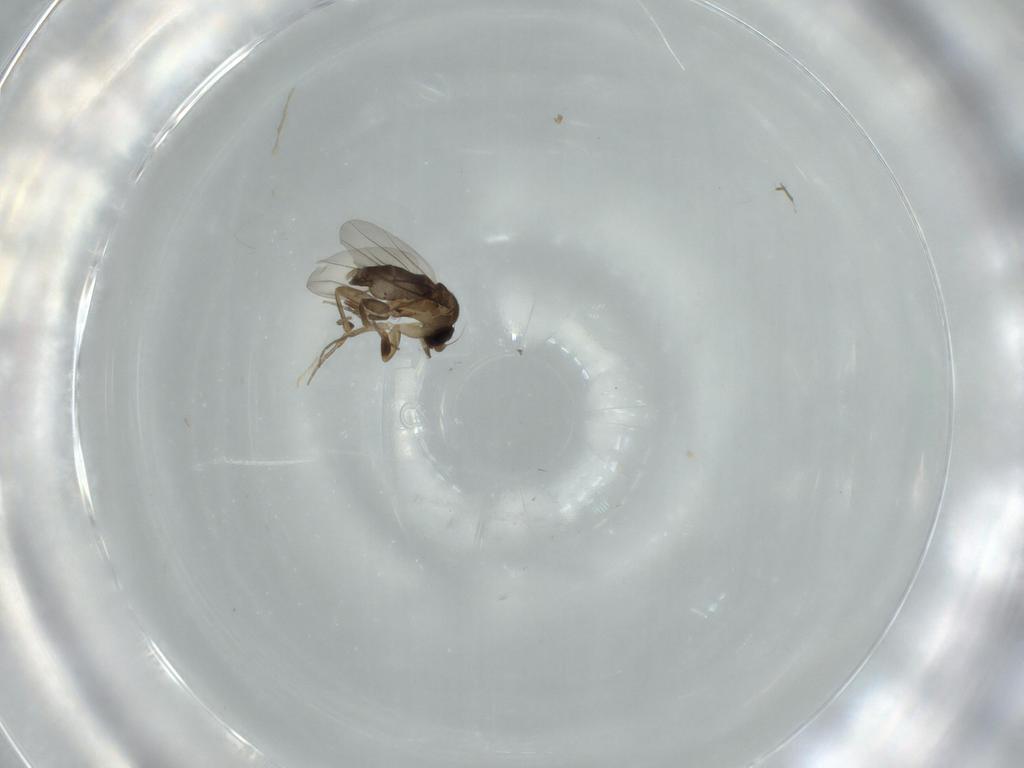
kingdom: Animalia
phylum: Arthropoda
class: Insecta
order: Diptera
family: Phoridae
